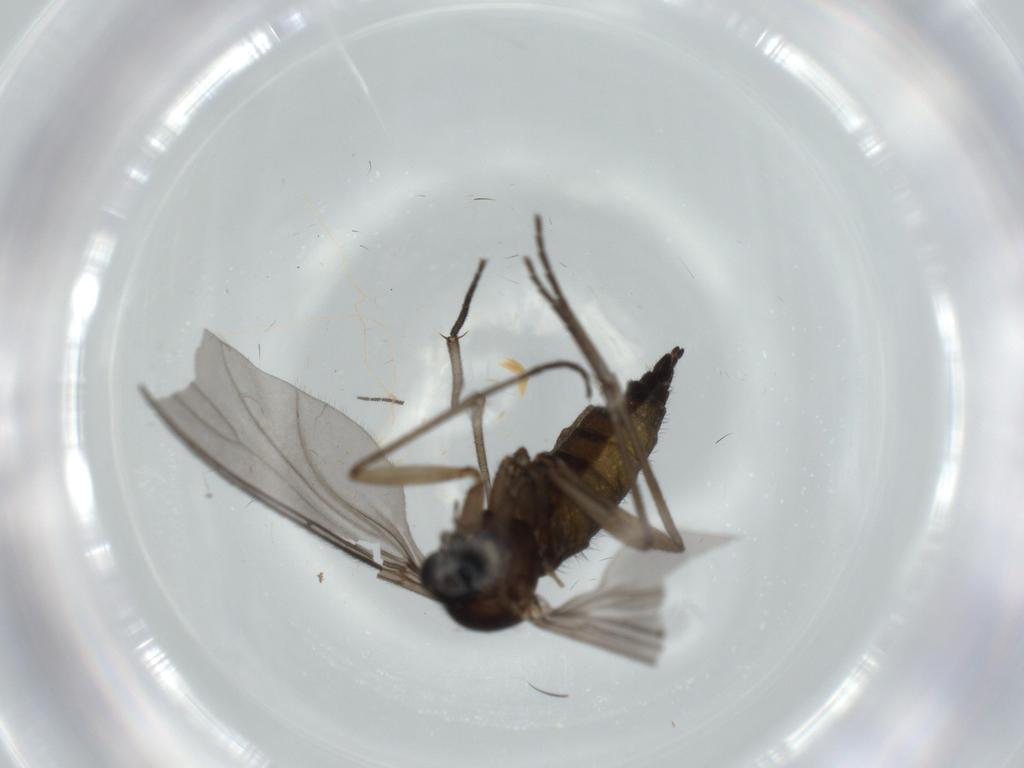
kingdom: Animalia
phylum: Arthropoda
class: Insecta
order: Diptera
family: Sciaridae
